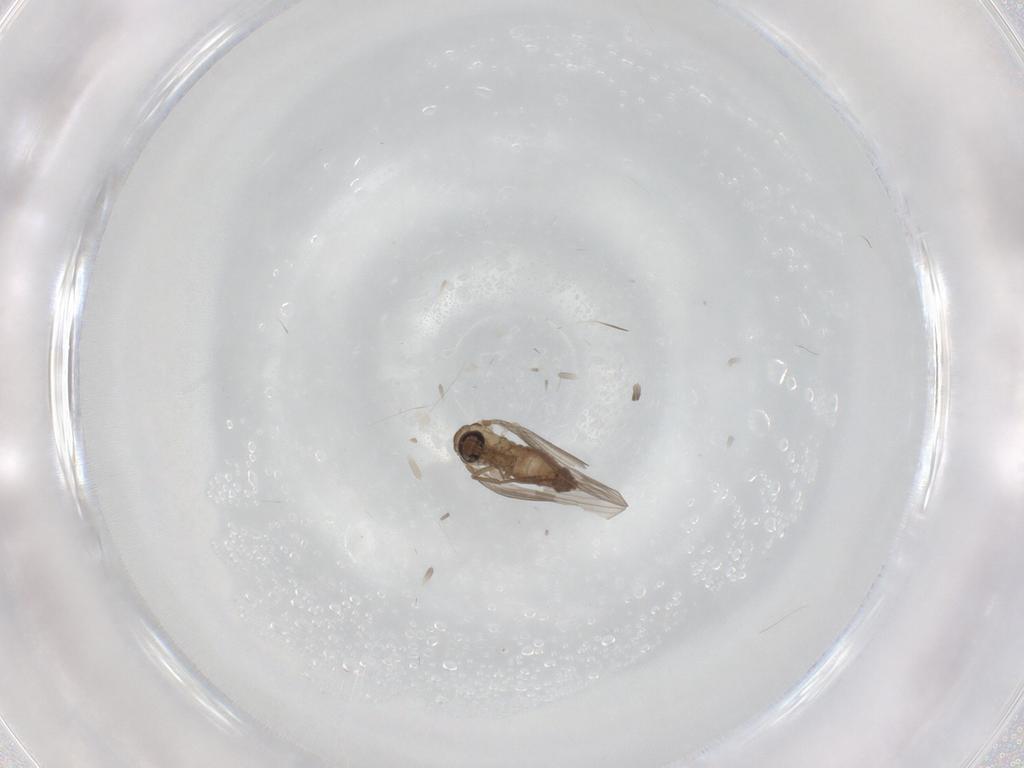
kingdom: Animalia
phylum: Arthropoda
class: Insecta
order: Diptera
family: Cecidomyiidae
